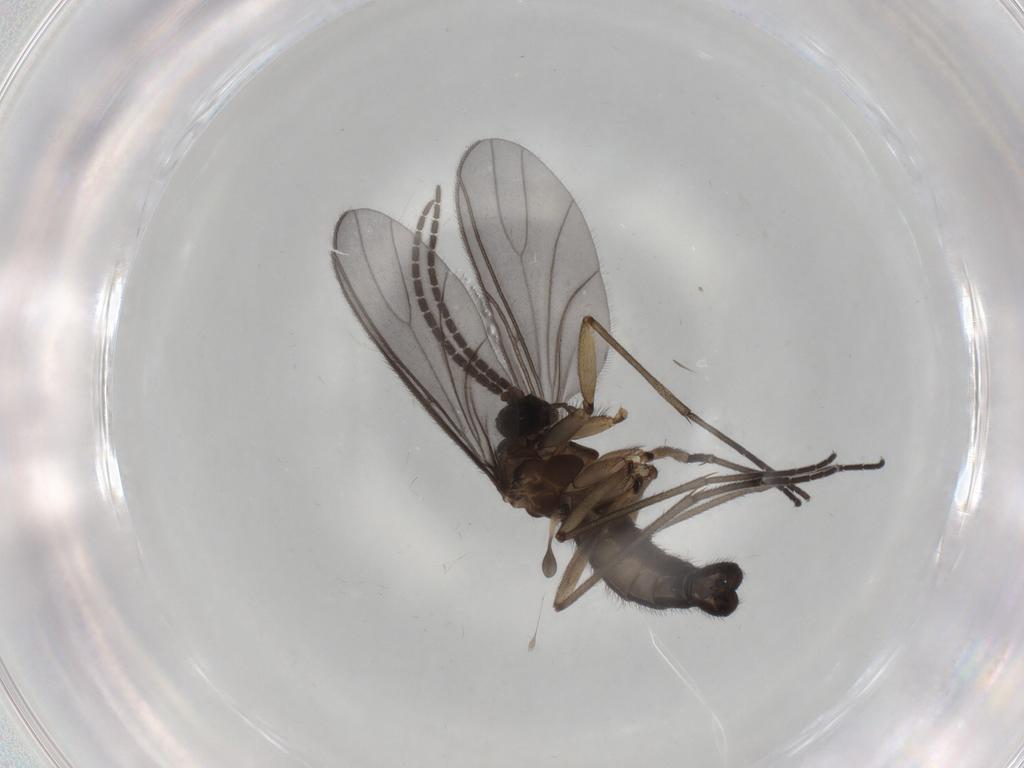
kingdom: Animalia
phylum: Arthropoda
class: Insecta
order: Diptera
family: Sciaridae
